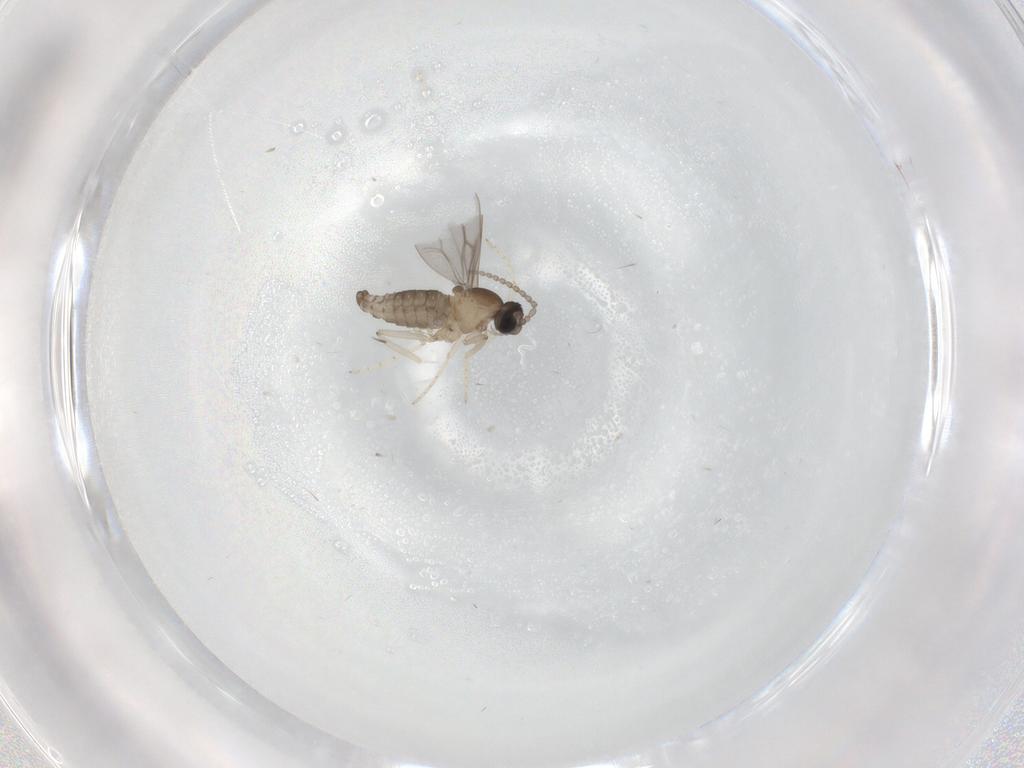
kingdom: Animalia
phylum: Arthropoda
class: Insecta
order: Diptera
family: Cecidomyiidae
